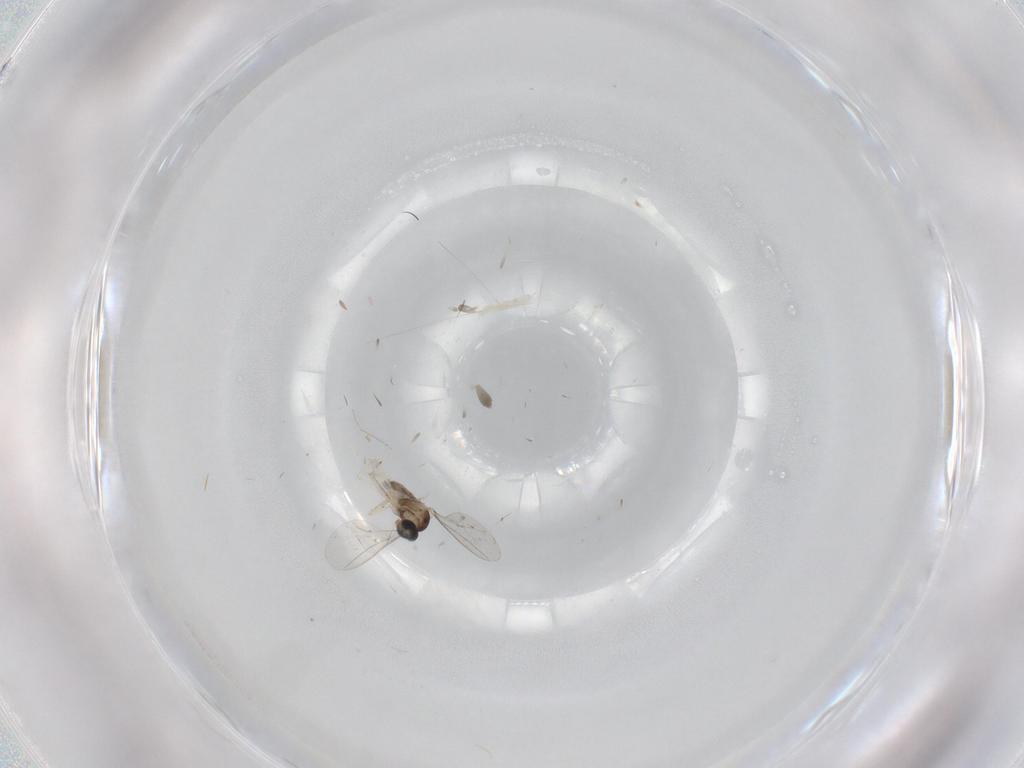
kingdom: Animalia
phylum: Arthropoda
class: Insecta
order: Diptera
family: Cecidomyiidae
